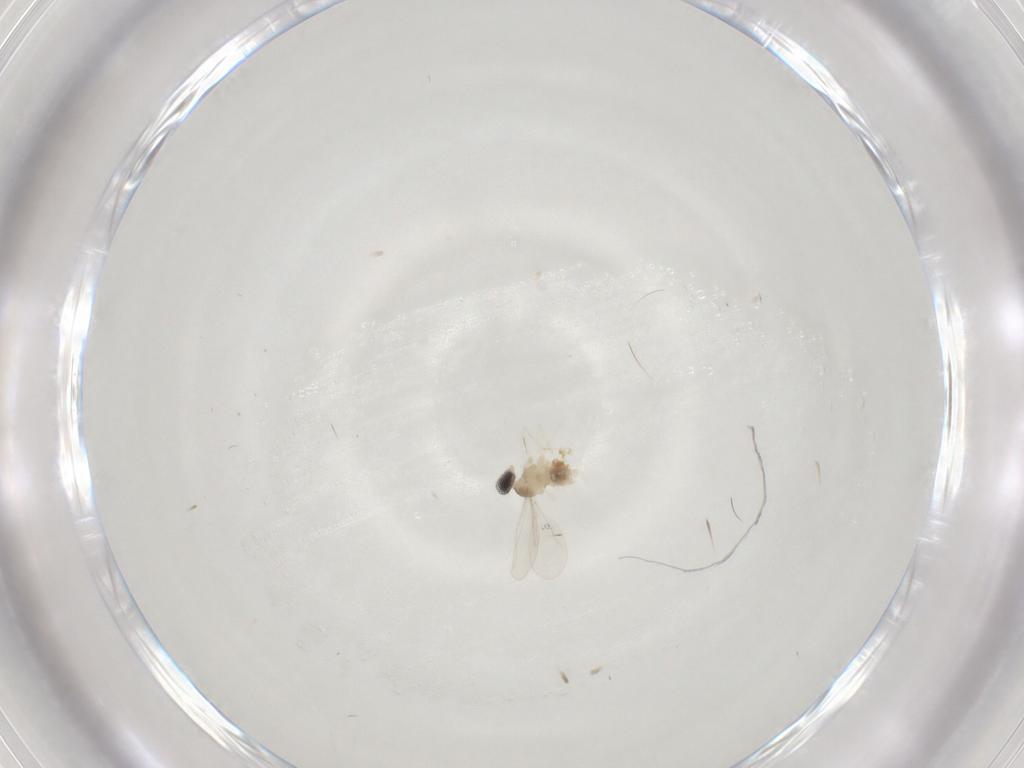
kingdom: Animalia
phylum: Arthropoda
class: Insecta
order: Diptera
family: Cecidomyiidae
